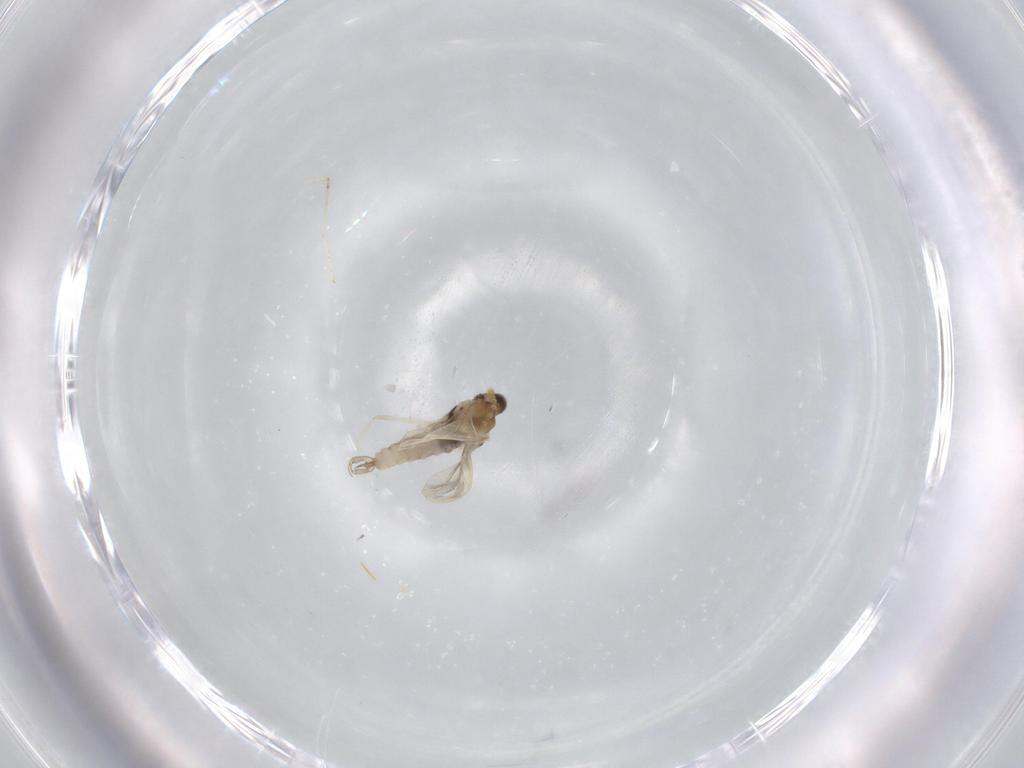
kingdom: Animalia
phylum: Arthropoda
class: Insecta
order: Diptera
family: Cecidomyiidae
